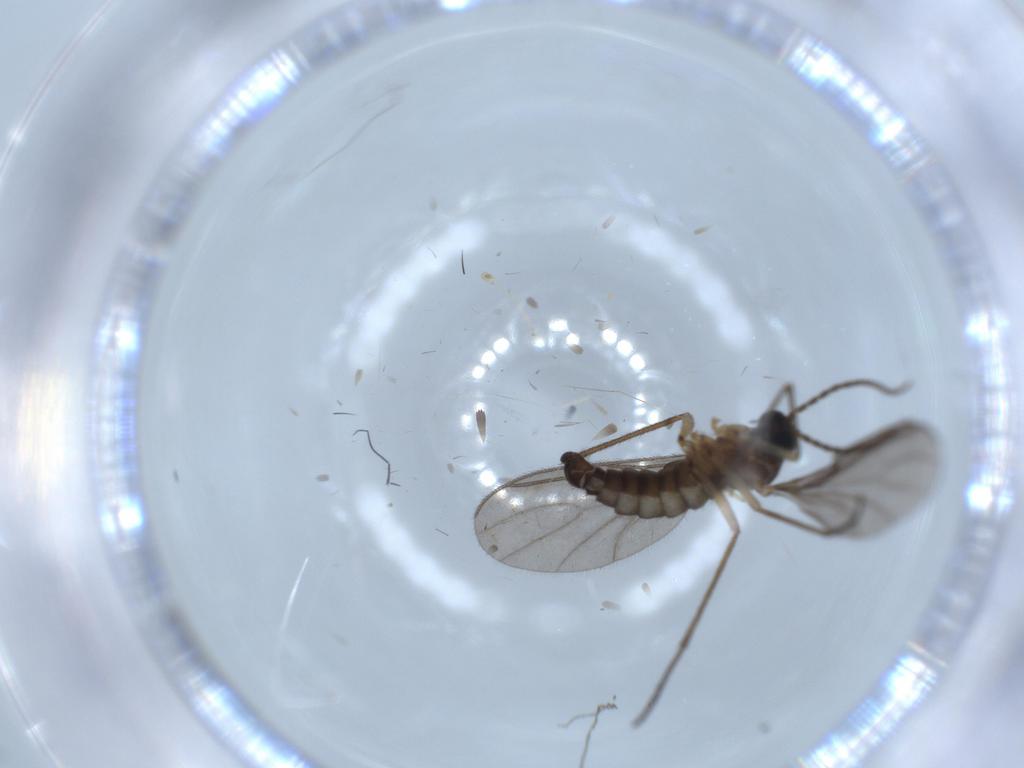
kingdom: Animalia
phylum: Arthropoda
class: Insecta
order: Diptera
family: Sciaridae
